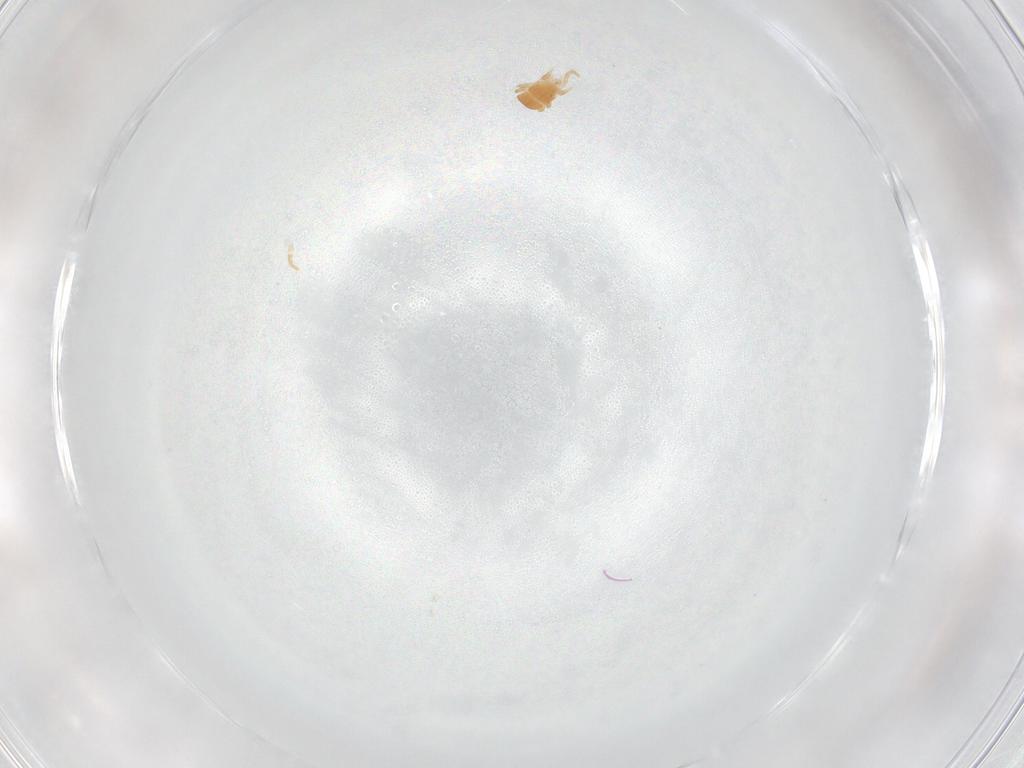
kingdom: Animalia
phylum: Arthropoda
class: Arachnida
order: Mesostigmata
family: Digamasellidae
